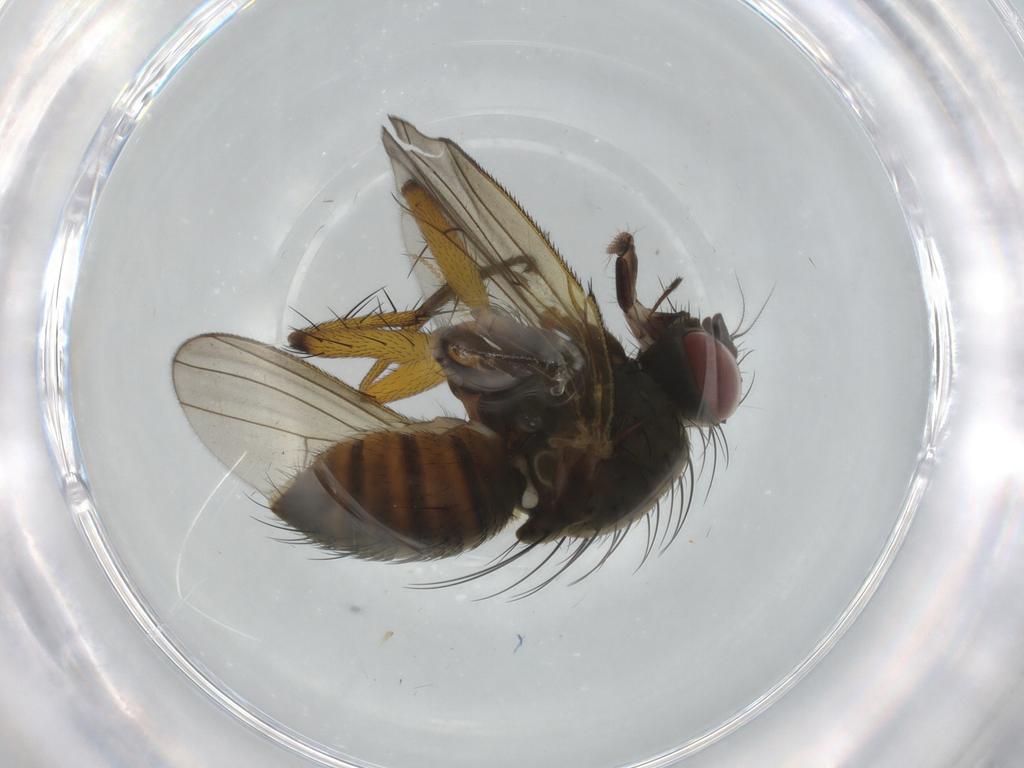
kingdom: Animalia
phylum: Arthropoda
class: Insecta
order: Diptera
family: Muscidae
